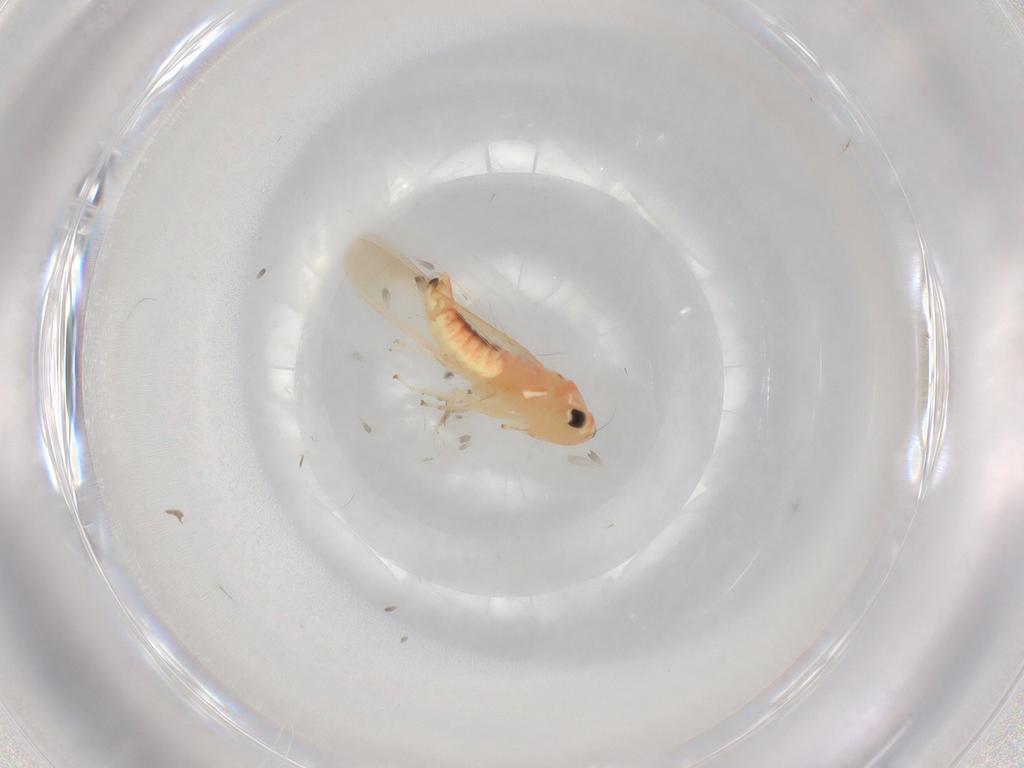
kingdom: Animalia
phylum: Arthropoda
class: Insecta
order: Hemiptera
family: Cicadellidae
